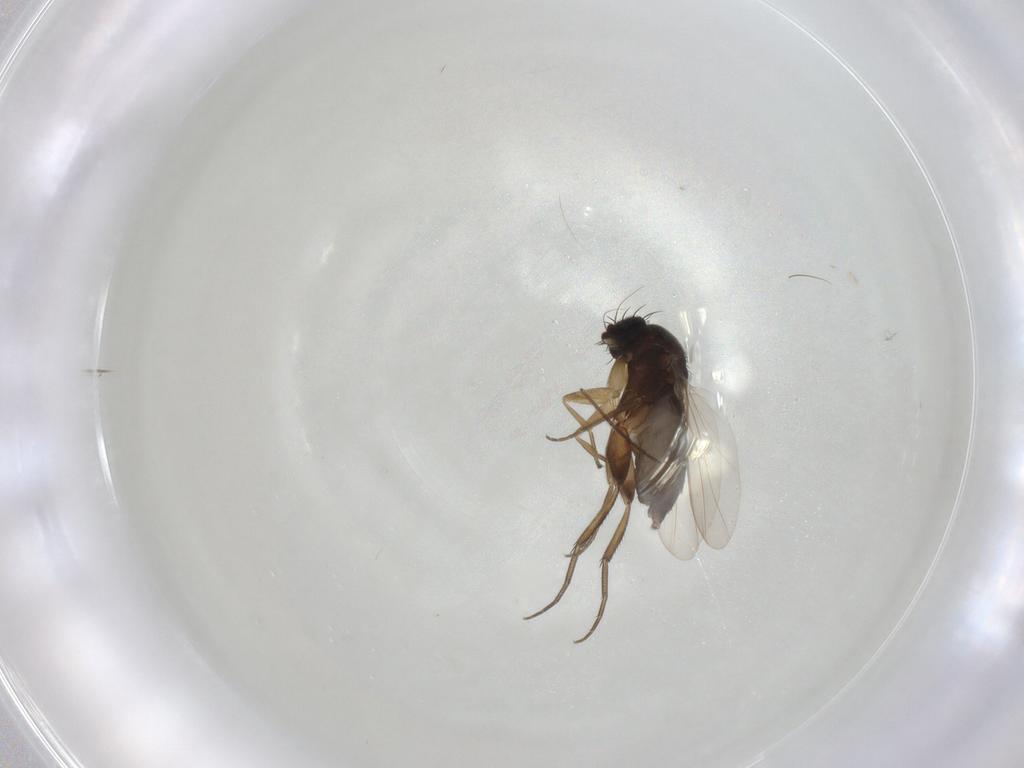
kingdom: Animalia
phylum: Arthropoda
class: Insecta
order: Diptera
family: Phoridae
